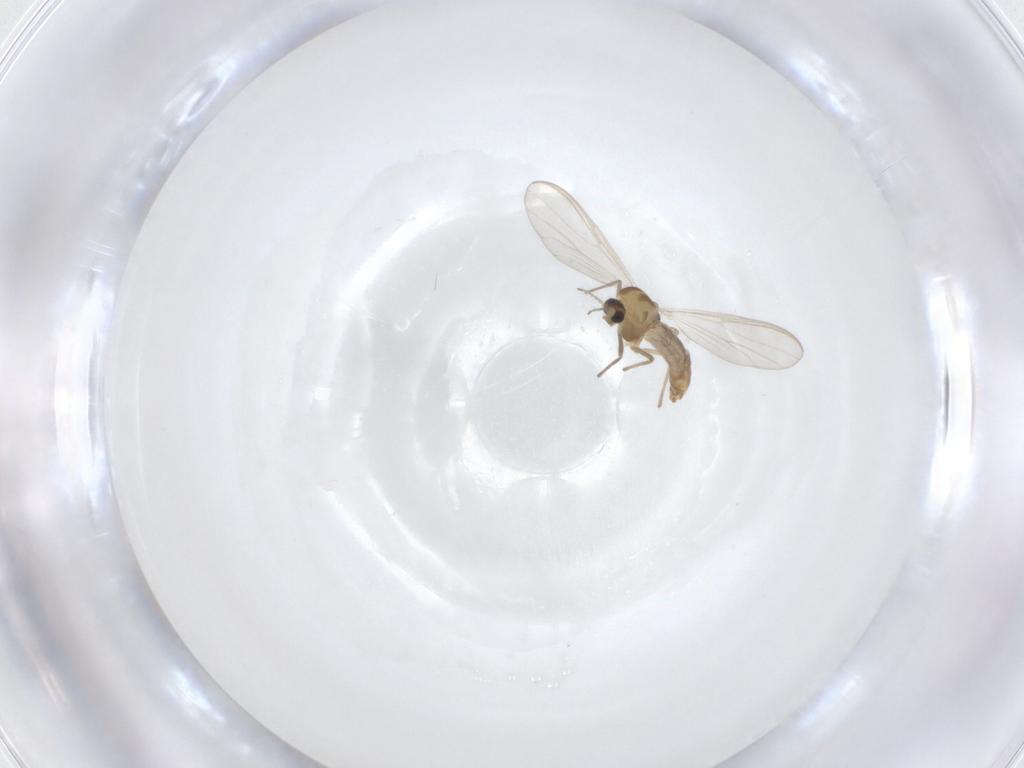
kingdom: Animalia
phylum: Arthropoda
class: Insecta
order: Diptera
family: Chironomidae
